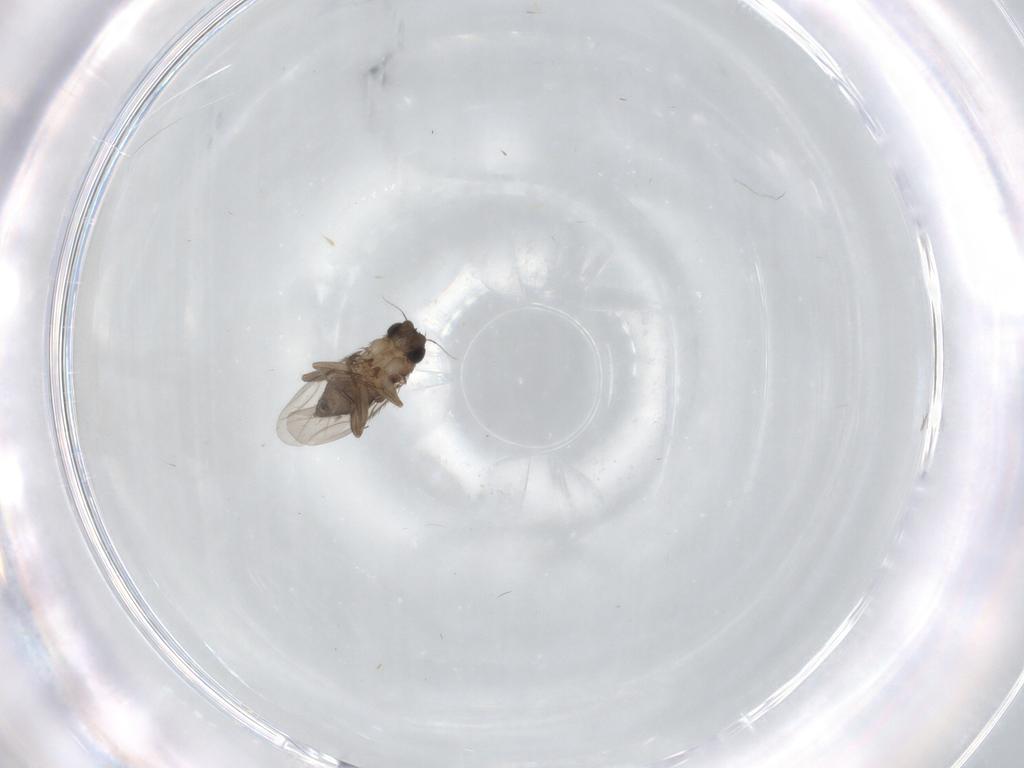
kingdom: Animalia
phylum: Arthropoda
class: Insecta
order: Diptera
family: Phoridae
